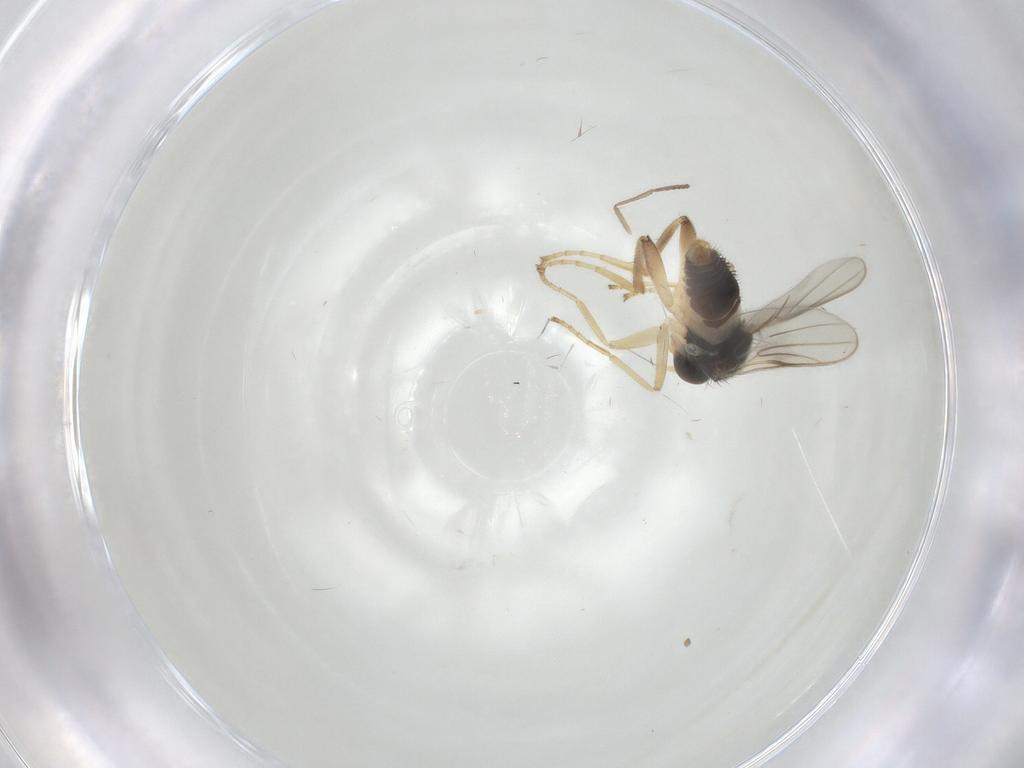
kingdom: Animalia
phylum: Arthropoda
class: Insecta
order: Diptera
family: Hybotidae
